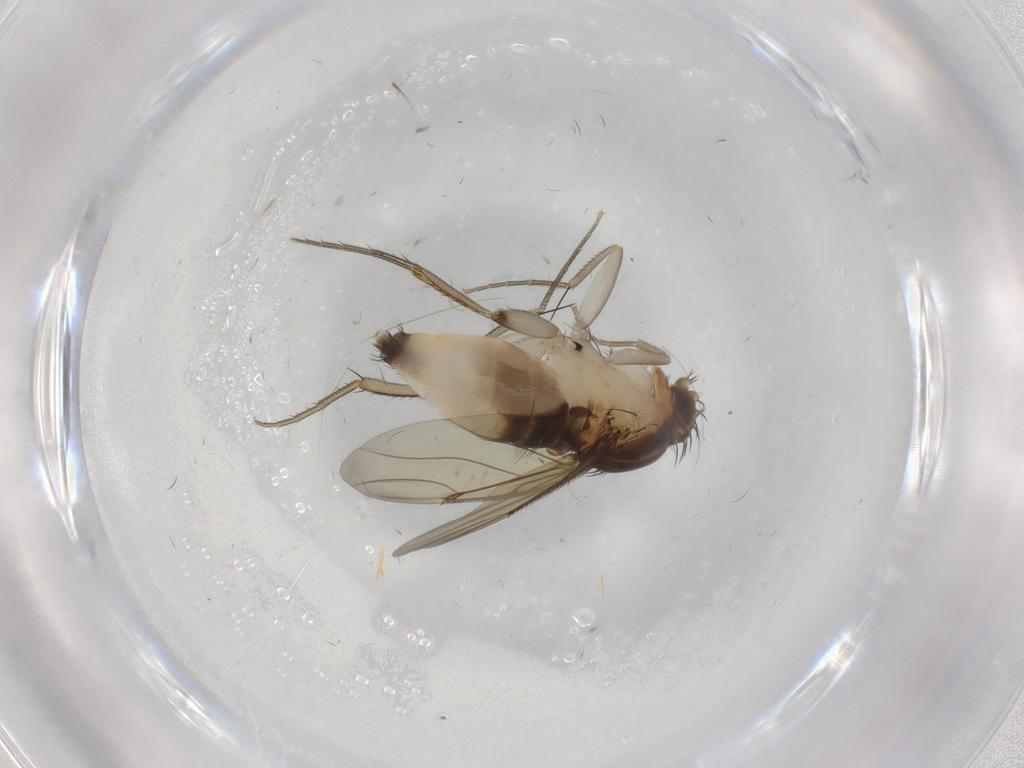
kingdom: Animalia
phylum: Arthropoda
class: Insecta
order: Diptera
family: Phoridae
